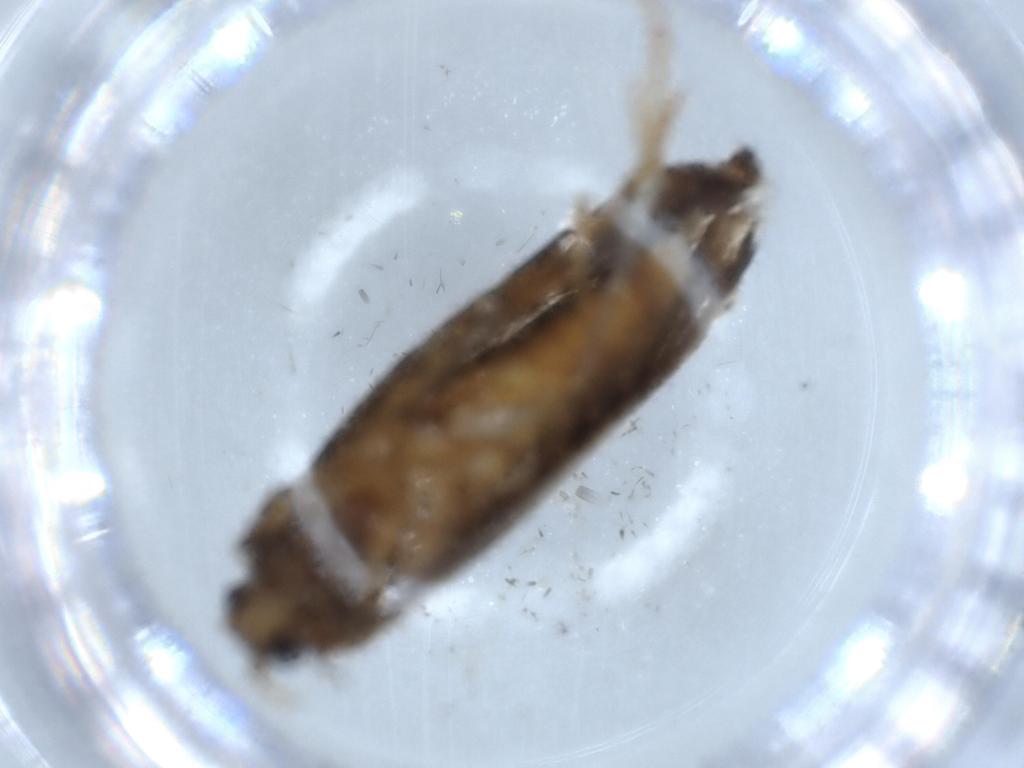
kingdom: Animalia
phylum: Arthropoda
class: Insecta
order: Lepidoptera
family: Tineidae
